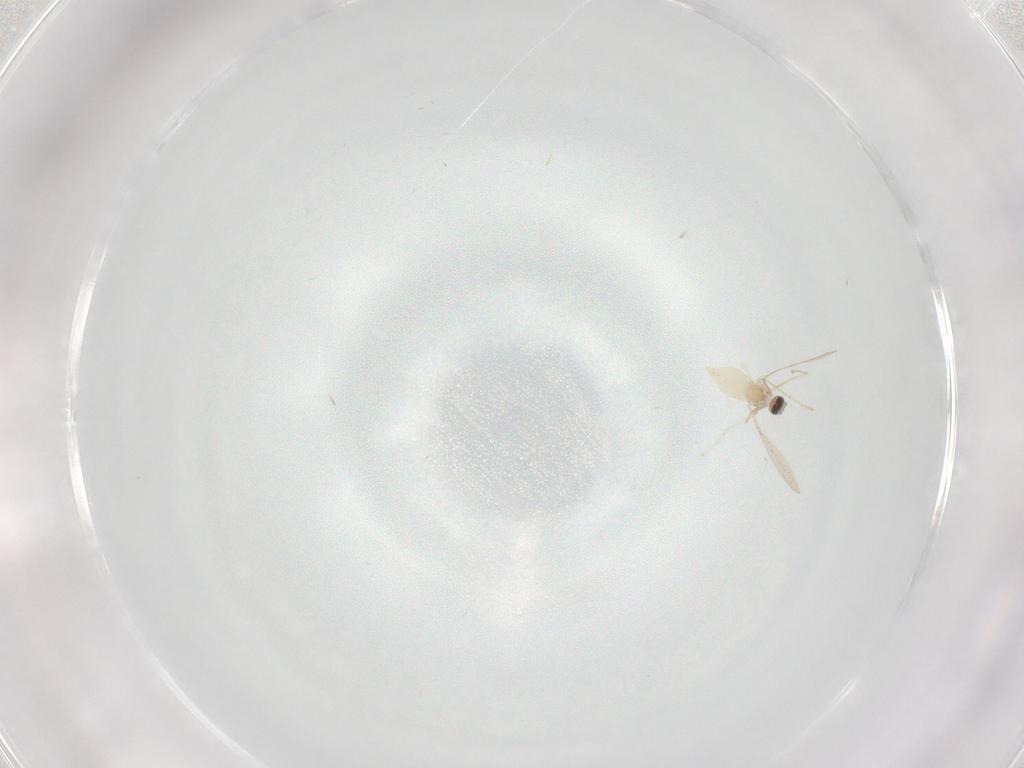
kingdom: Animalia
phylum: Arthropoda
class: Insecta
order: Diptera
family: Cecidomyiidae
